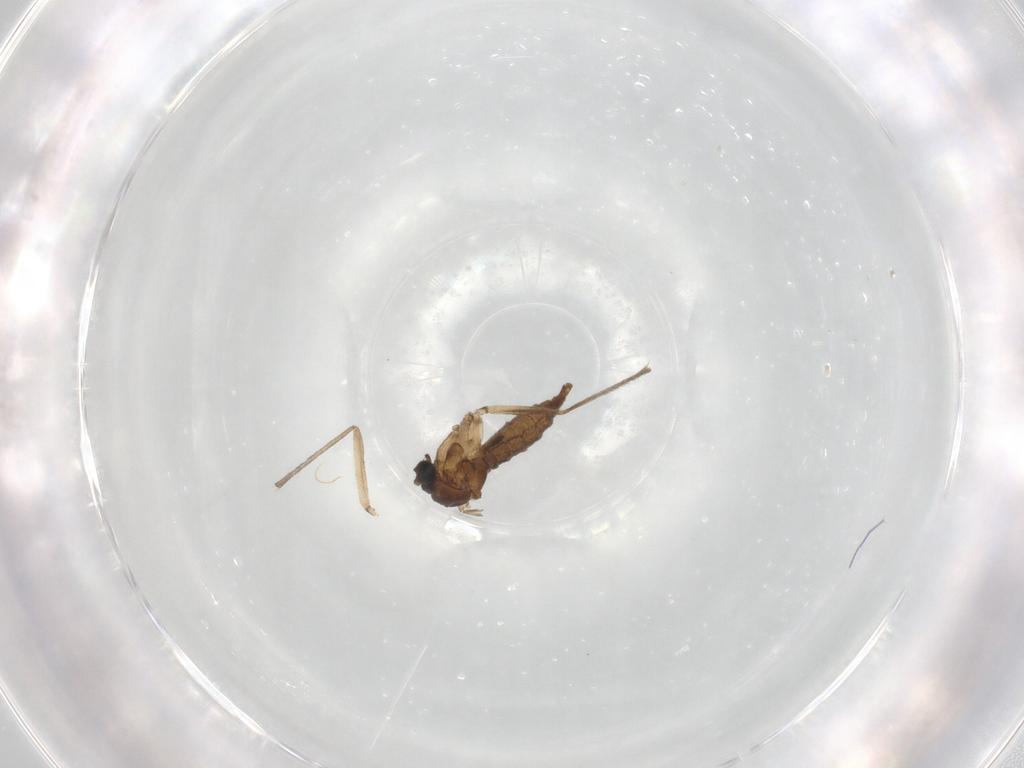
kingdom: Animalia
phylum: Arthropoda
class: Insecta
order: Diptera
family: Sciaridae
